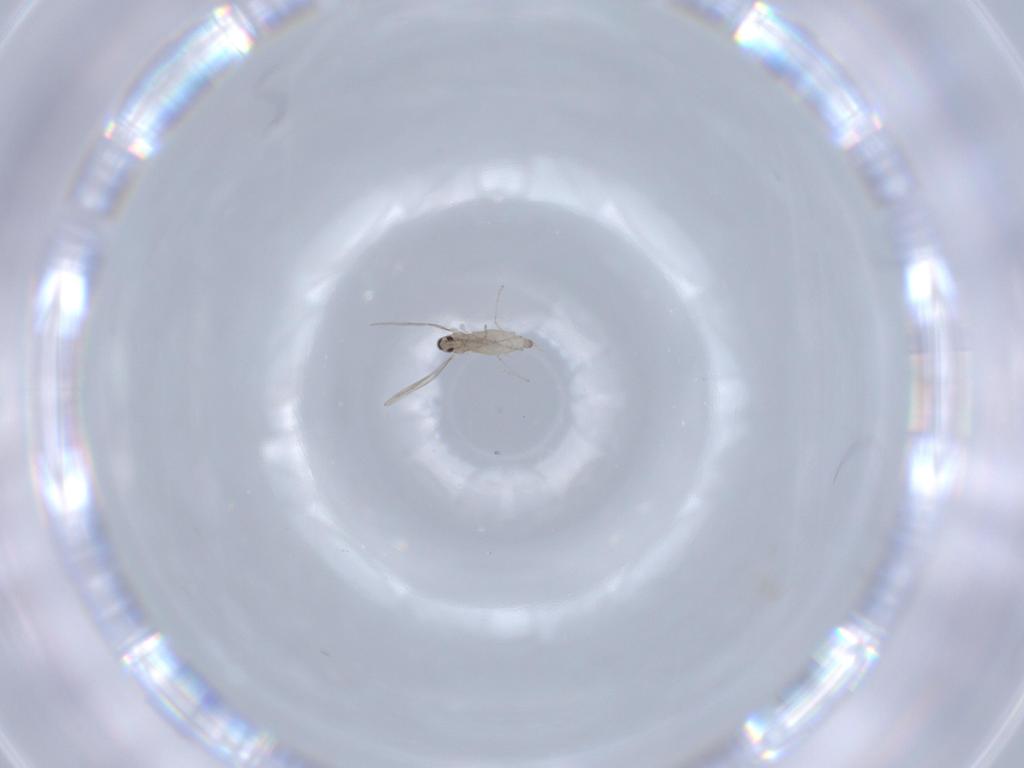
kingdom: Animalia
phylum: Arthropoda
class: Insecta
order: Diptera
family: Cecidomyiidae
